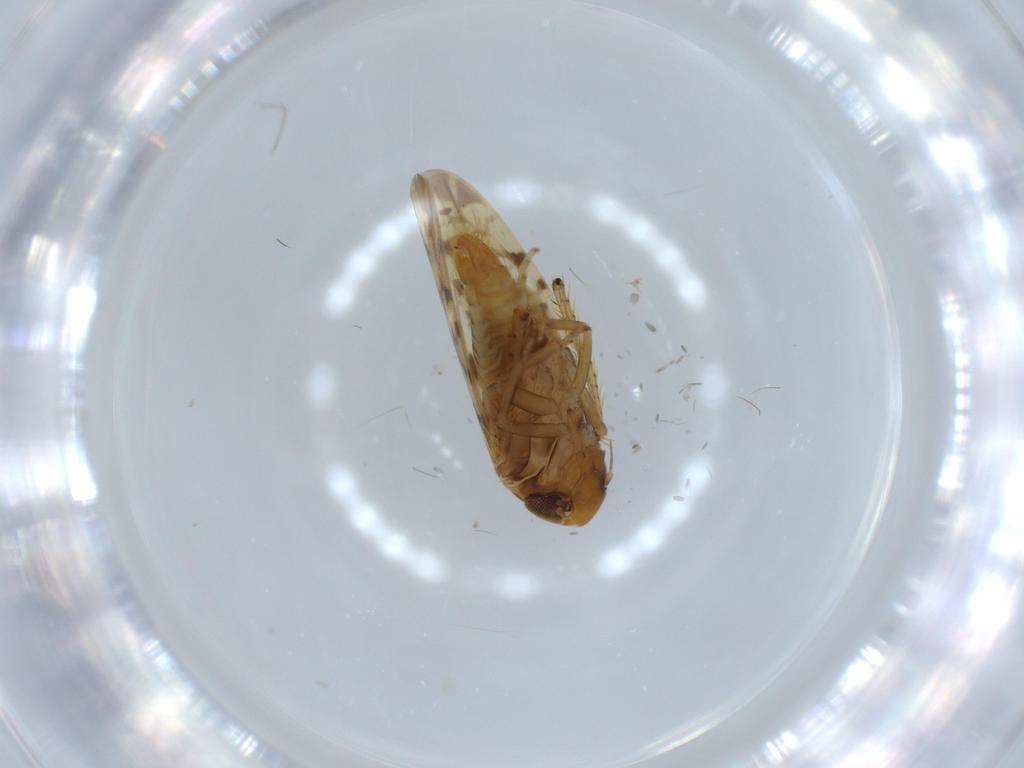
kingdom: Animalia
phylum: Arthropoda
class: Insecta
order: Hemiptera
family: Cicadellidae
